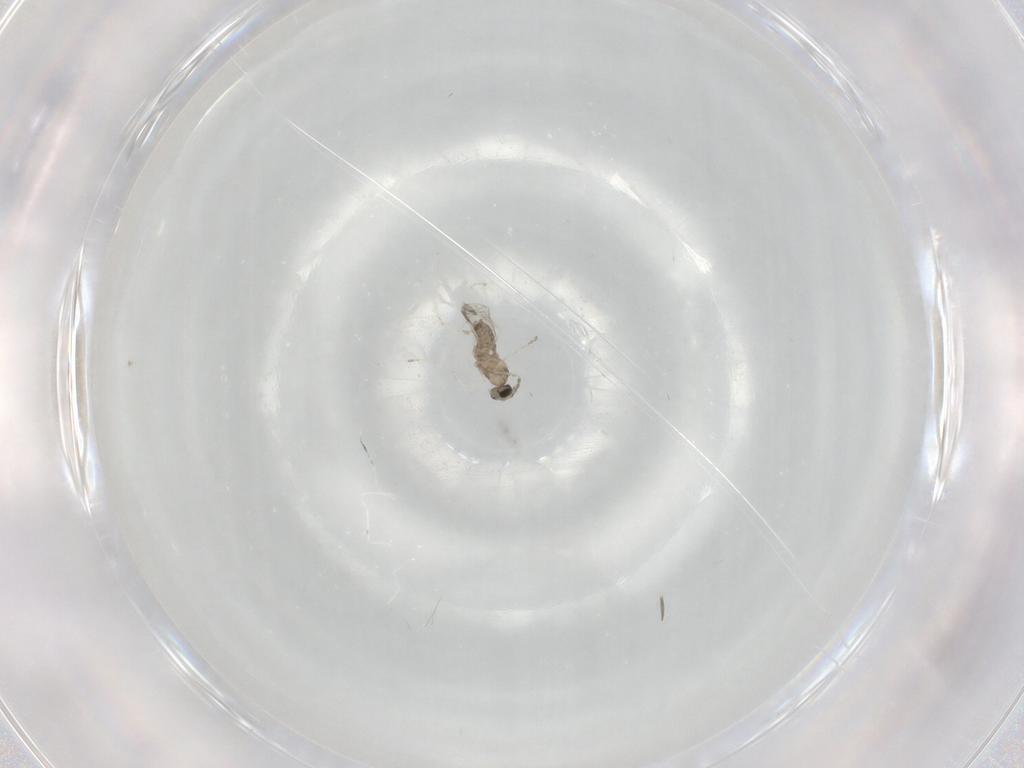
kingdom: Animalia
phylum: Arthropoda
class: Insecta
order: Diptera
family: Cecidomyiidae
